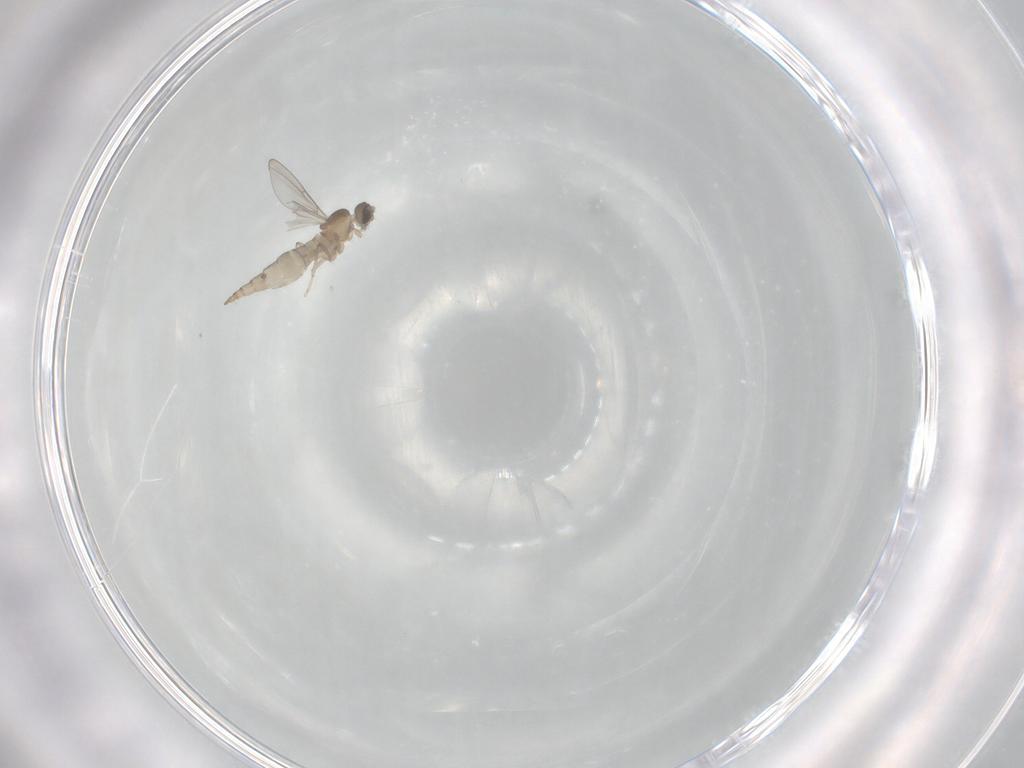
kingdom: Animalia
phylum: Arthropoda
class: Insecta
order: Diptera
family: Cecidomyiidae
